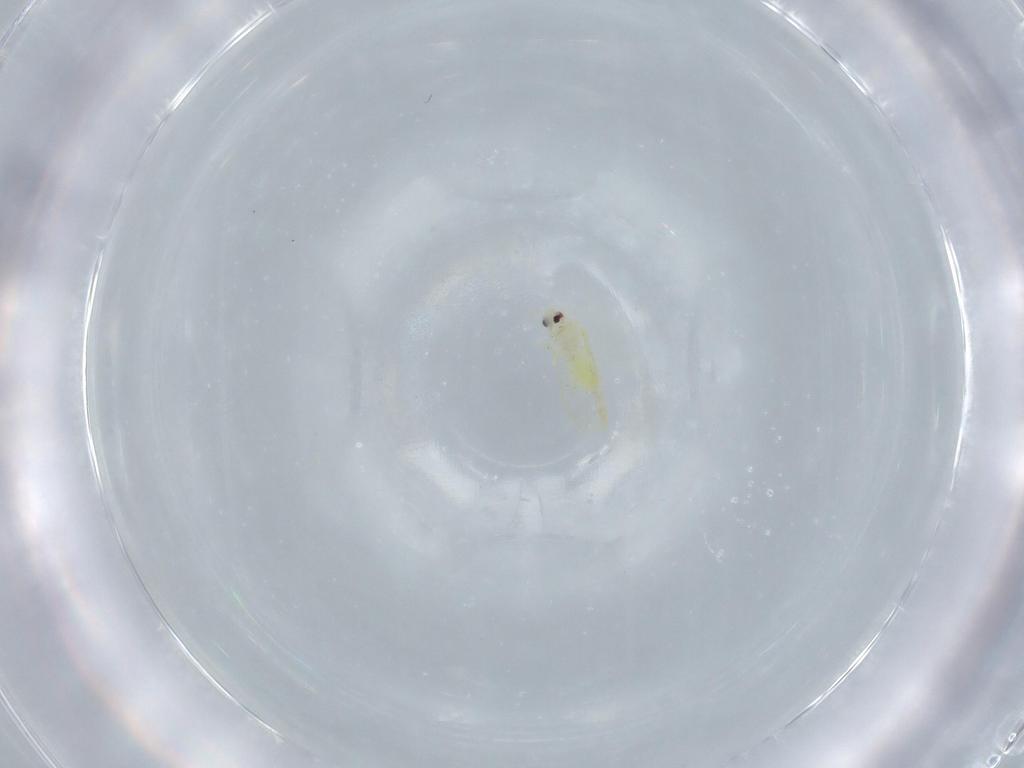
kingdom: Animalia
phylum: Arthropoda
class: Insecta
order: Hemiptera
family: Aleyrodidae
